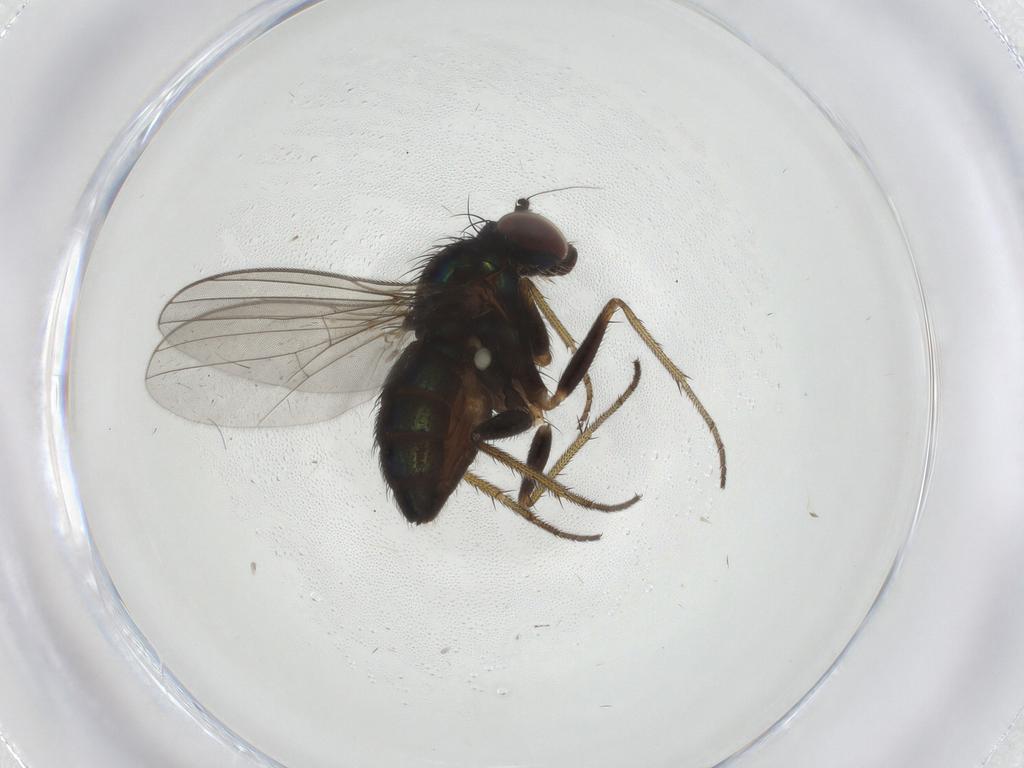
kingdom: Animalia
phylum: Arthropoda
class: Insecta
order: Diptera
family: Dolichopodidae
